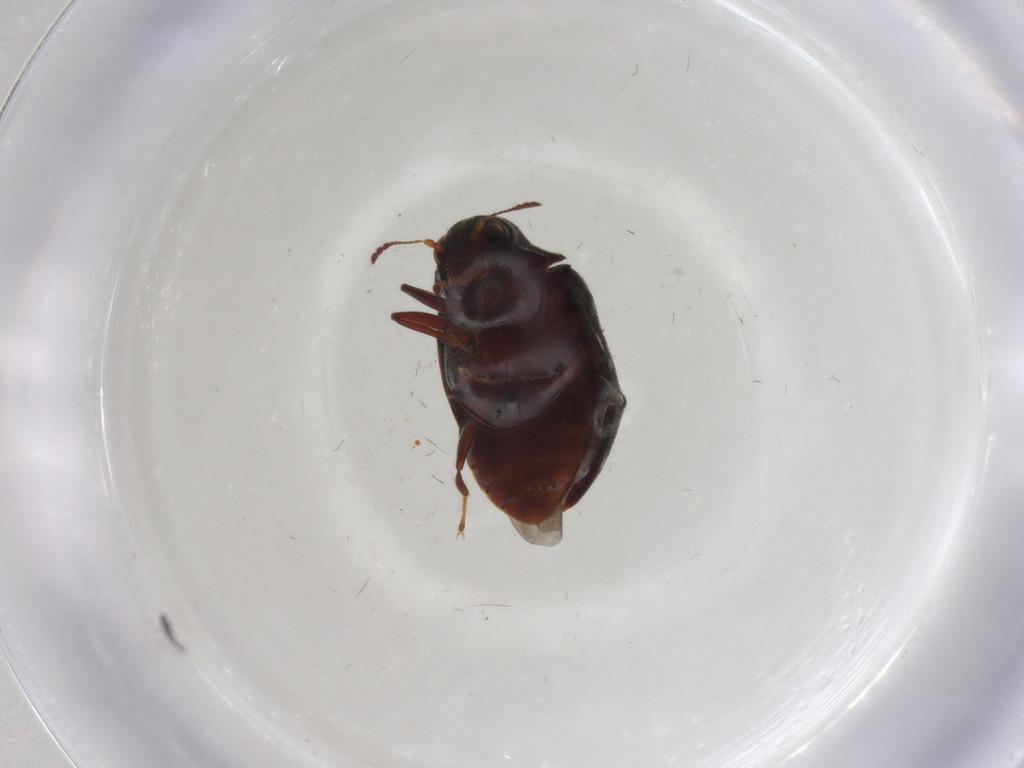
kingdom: Animalia
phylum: Arthropoda
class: Insecta
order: Coleoptera
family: Limnichidae
